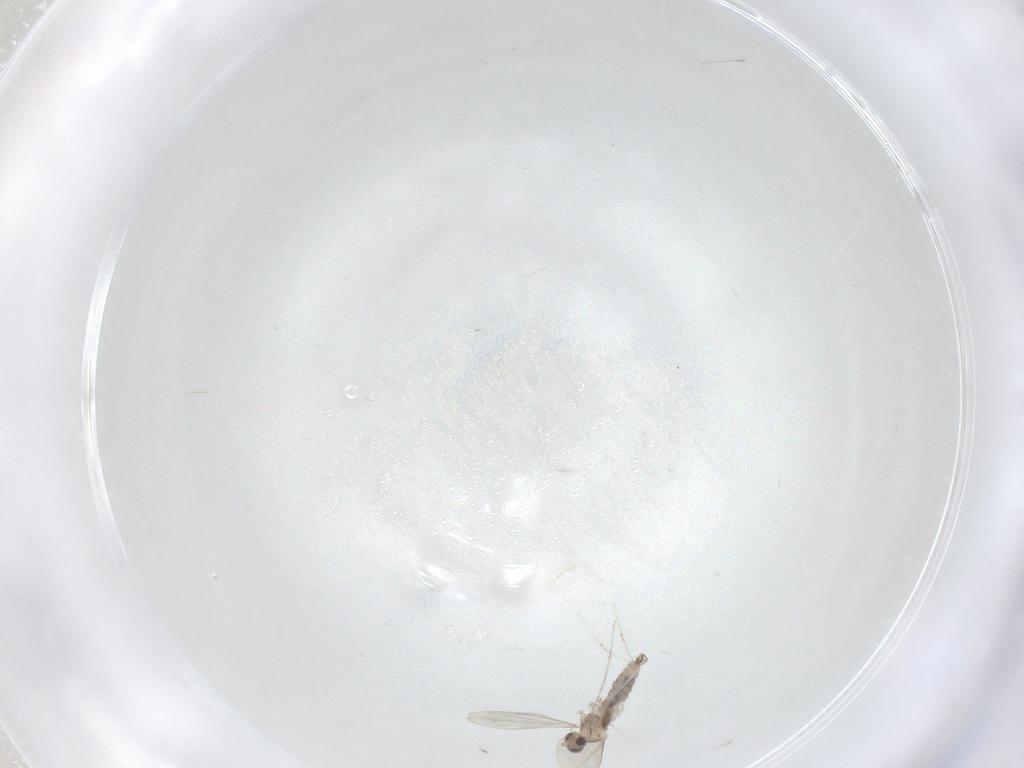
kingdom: Animalia
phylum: Arthropoda
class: Insecta
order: Diptera
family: Cecidomyiidae
